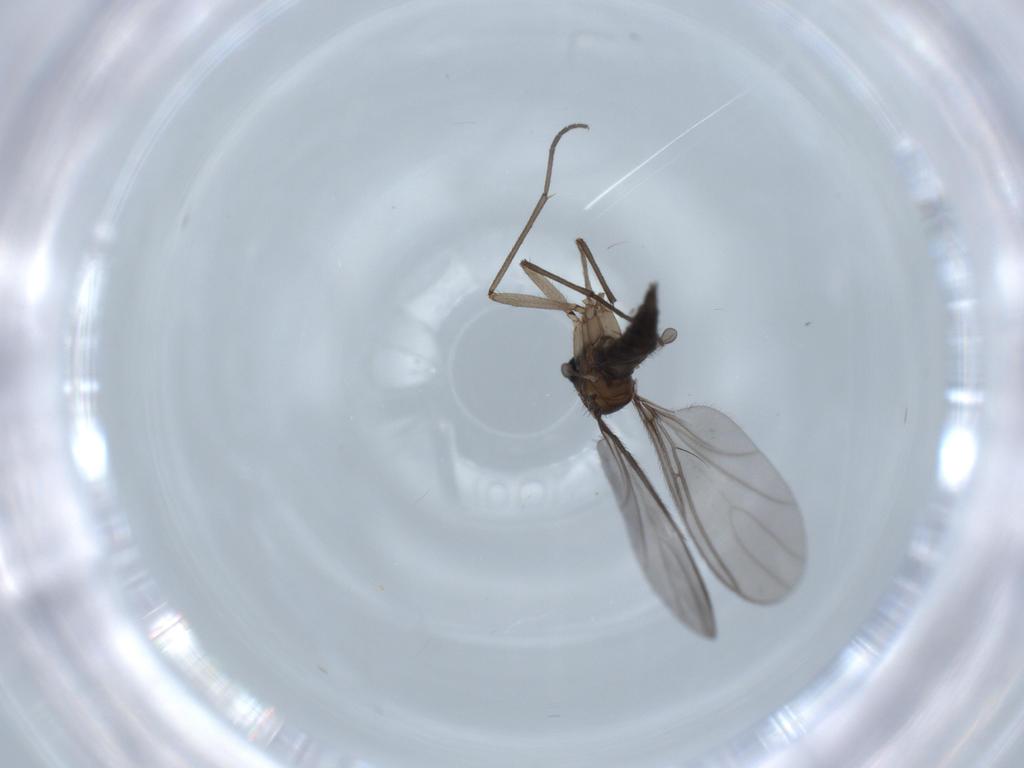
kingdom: Animalia
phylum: Arthropoda
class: Insecta
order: Diptera
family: Sciaridae
